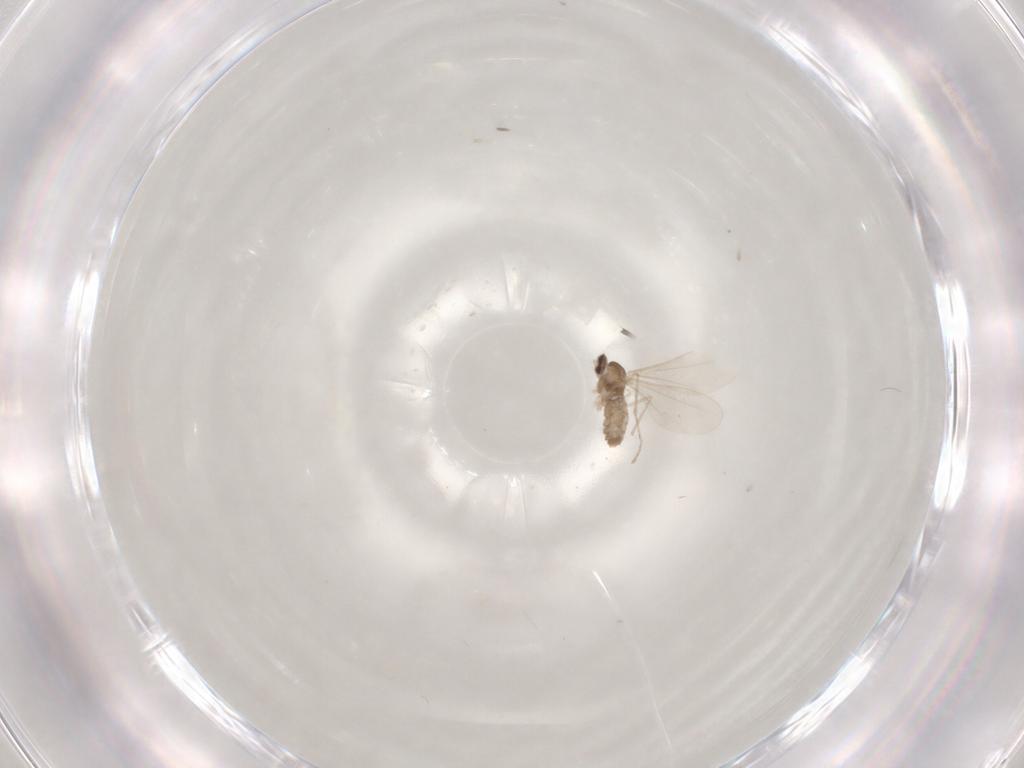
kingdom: Animalia
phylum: Arthropoda
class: Insecta
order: Diptera
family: Cecidomyiidae
